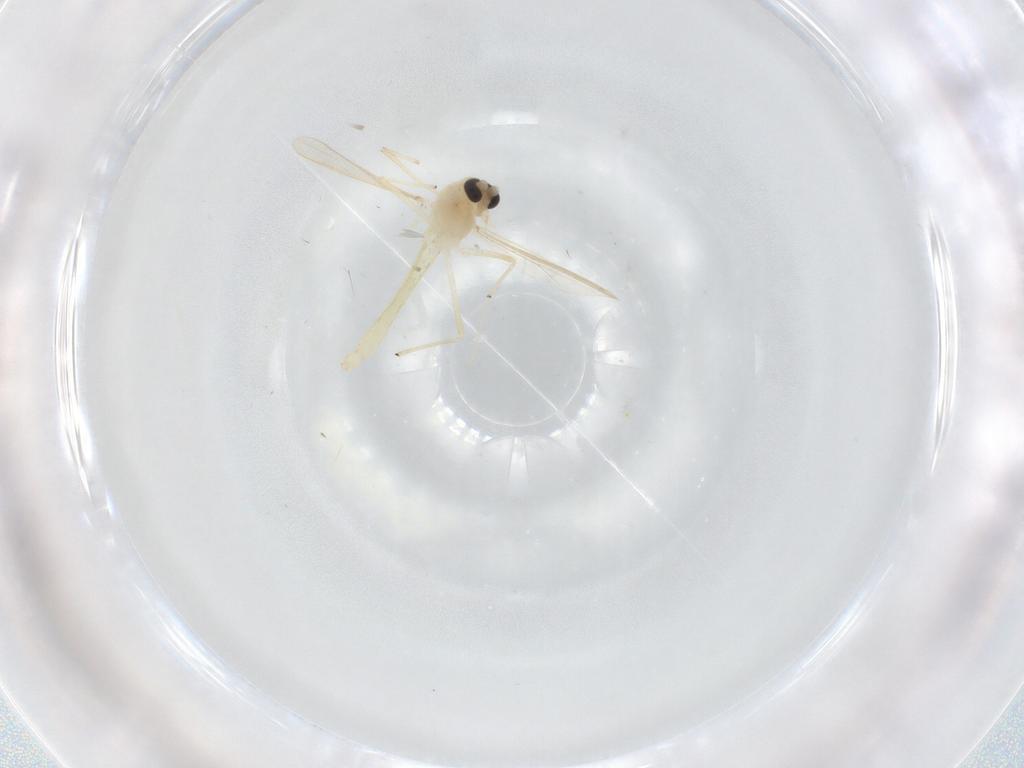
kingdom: Animalia
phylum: Arthropoda
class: Insecta
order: Diptera
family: Chironomidae
